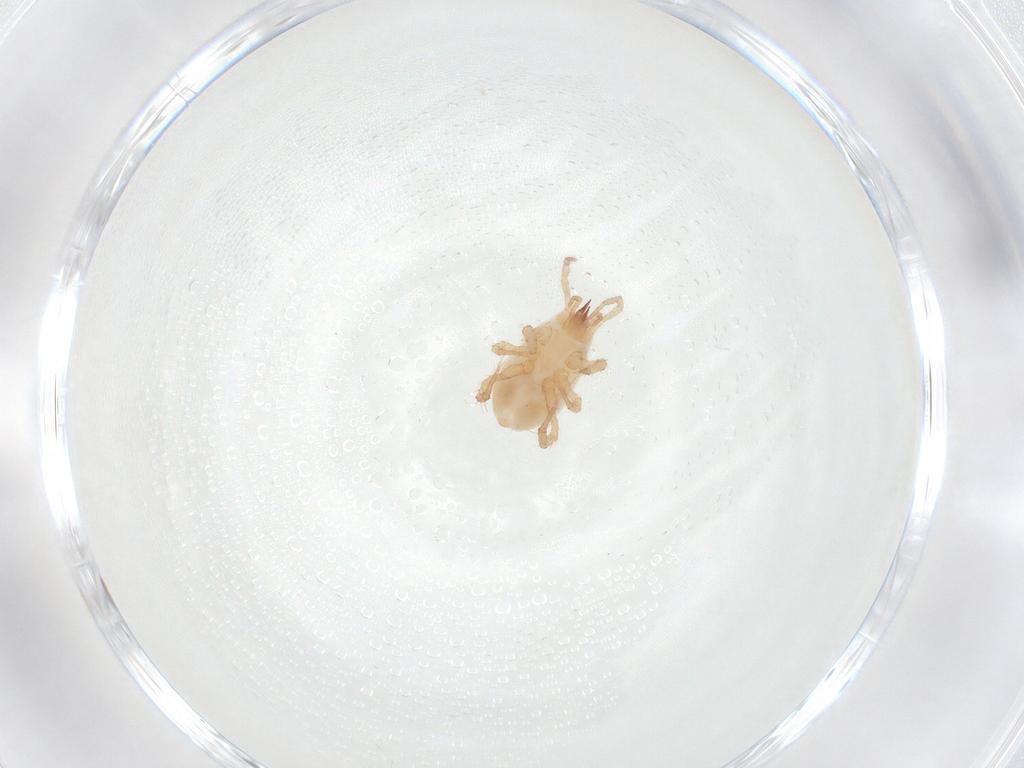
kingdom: Animalia
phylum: Arthropoda
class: Arachnida
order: Mesostigmata
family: Veigaiidae
